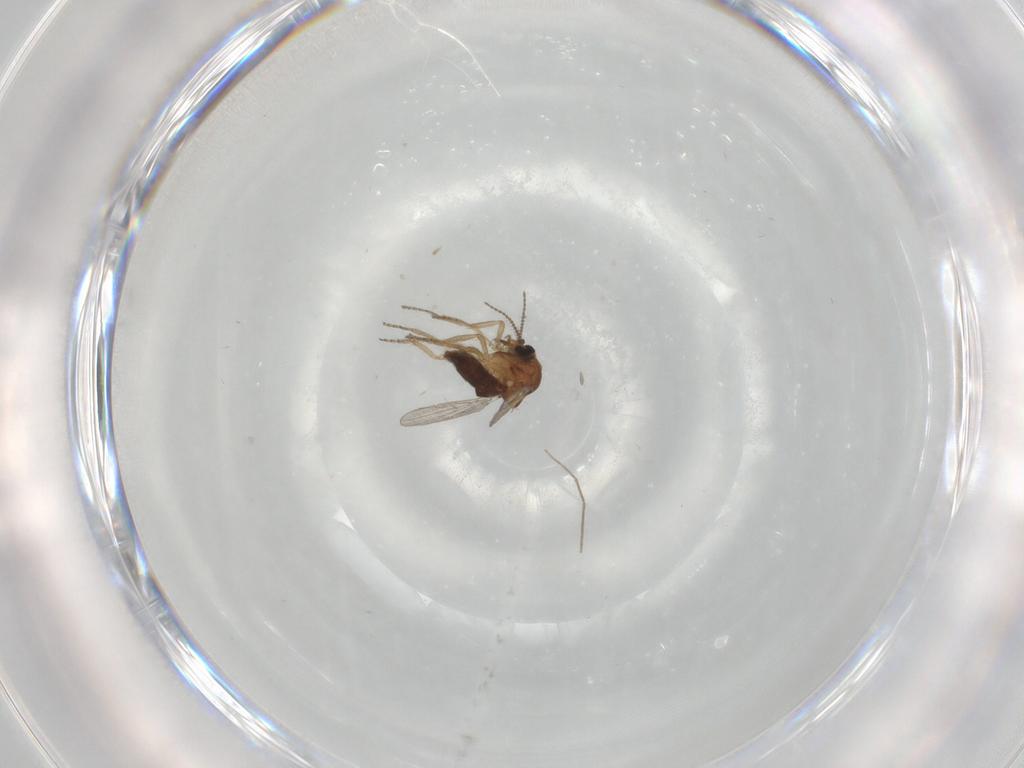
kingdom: Animalia
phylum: Arthropoda
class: Insecta
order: Diptera
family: Ceratopogonidae
